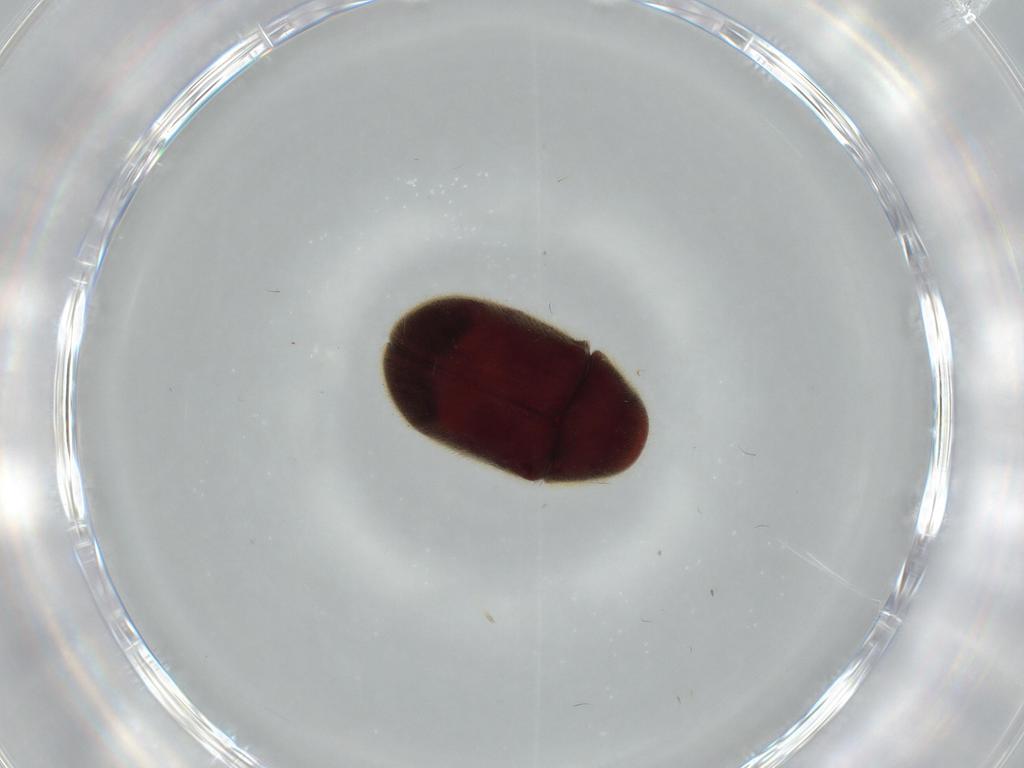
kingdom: Animalia
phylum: Arthropoda
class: Insecta
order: Coleoptera
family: Ptinidae
